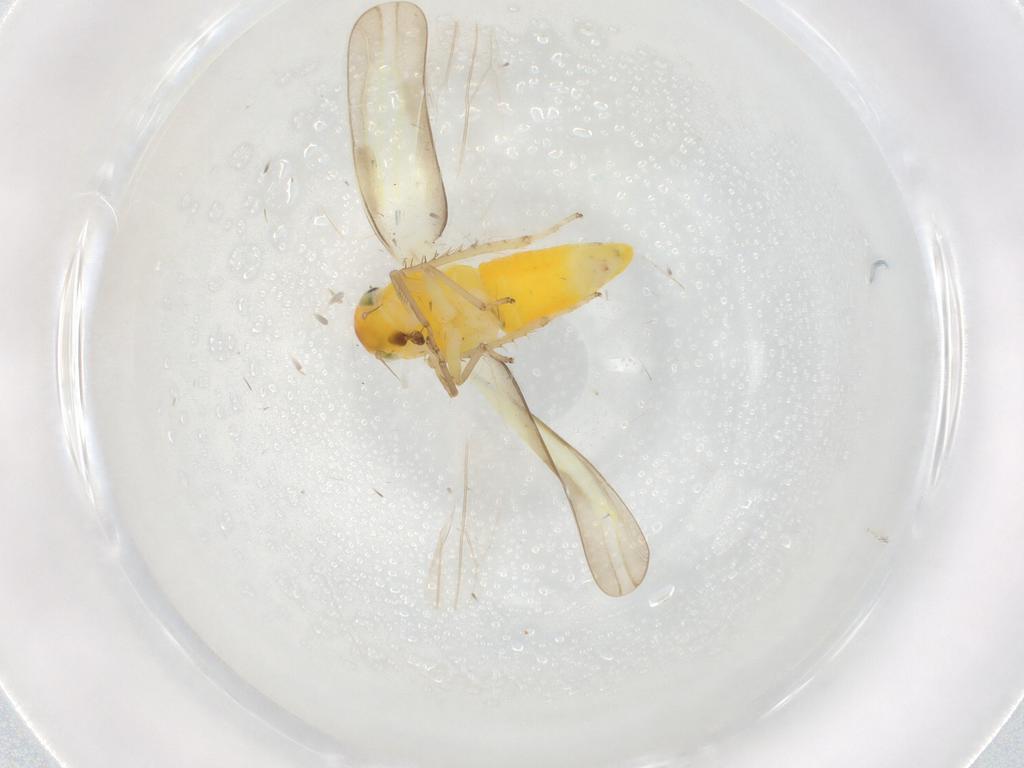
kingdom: Animalia
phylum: Arthropoda
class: Insecta
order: Hemiptera
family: Cicadellidae
